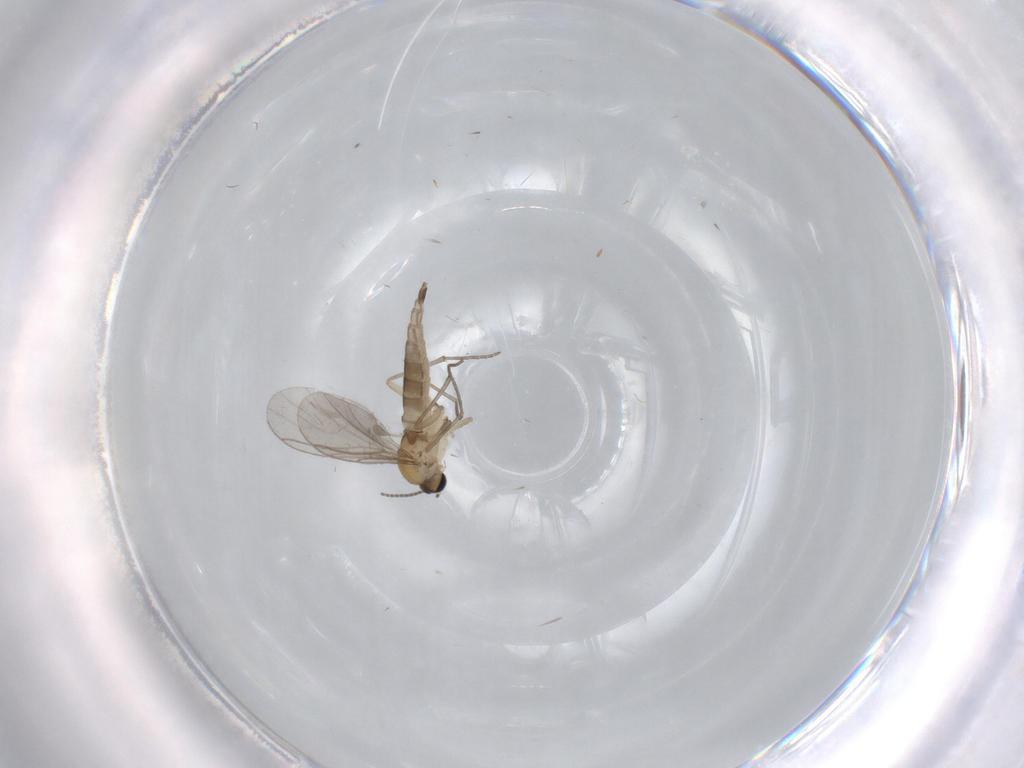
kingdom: Animalia
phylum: Arthropoda
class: Insecta
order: Diptera
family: Sciaridae
